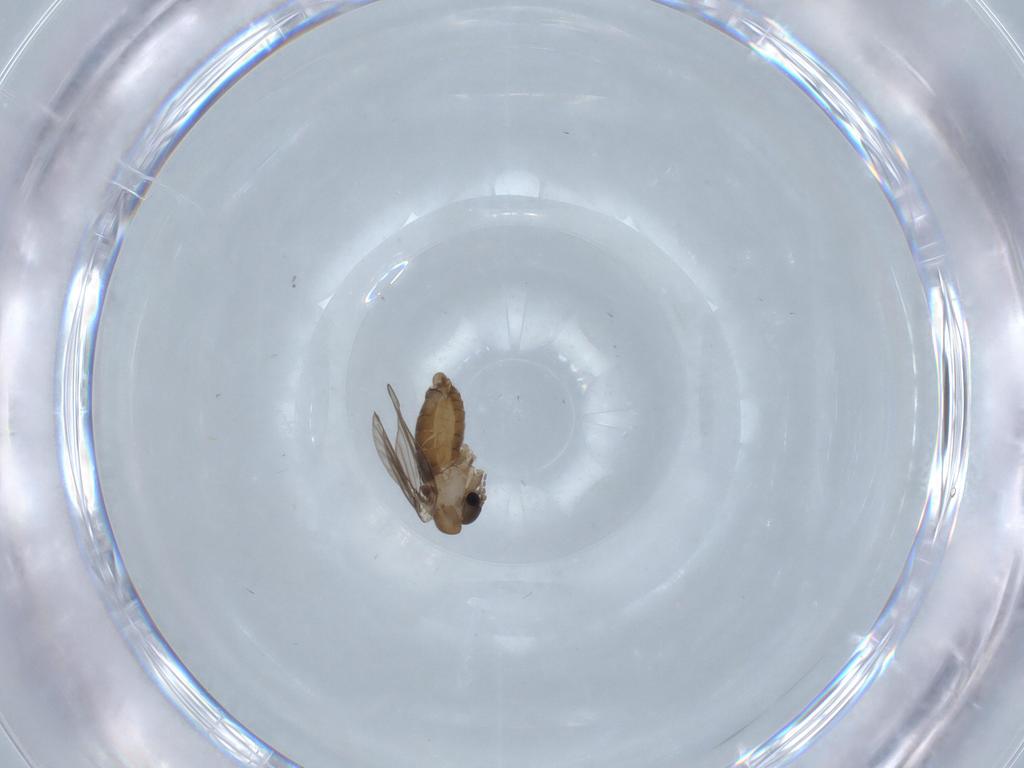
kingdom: Animalia
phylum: Arthropoda
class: Insecta
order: Diptera
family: Psychodidae
